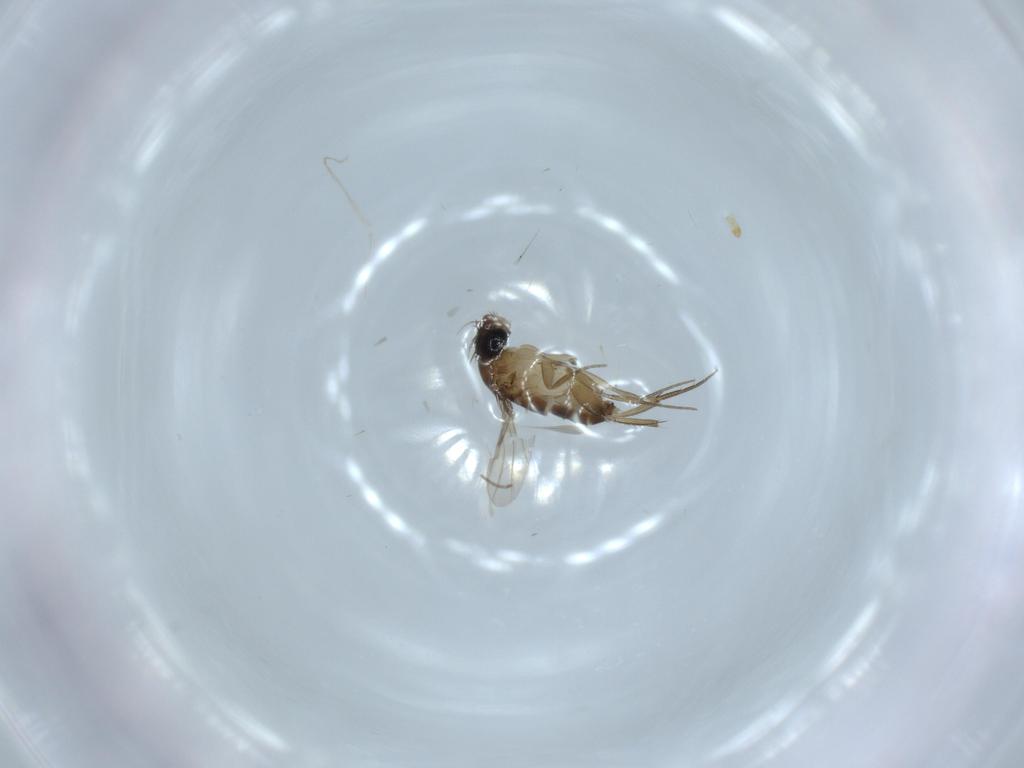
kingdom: Animalia
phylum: Arthropoda
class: Insecta
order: Diptera
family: Phoridae
